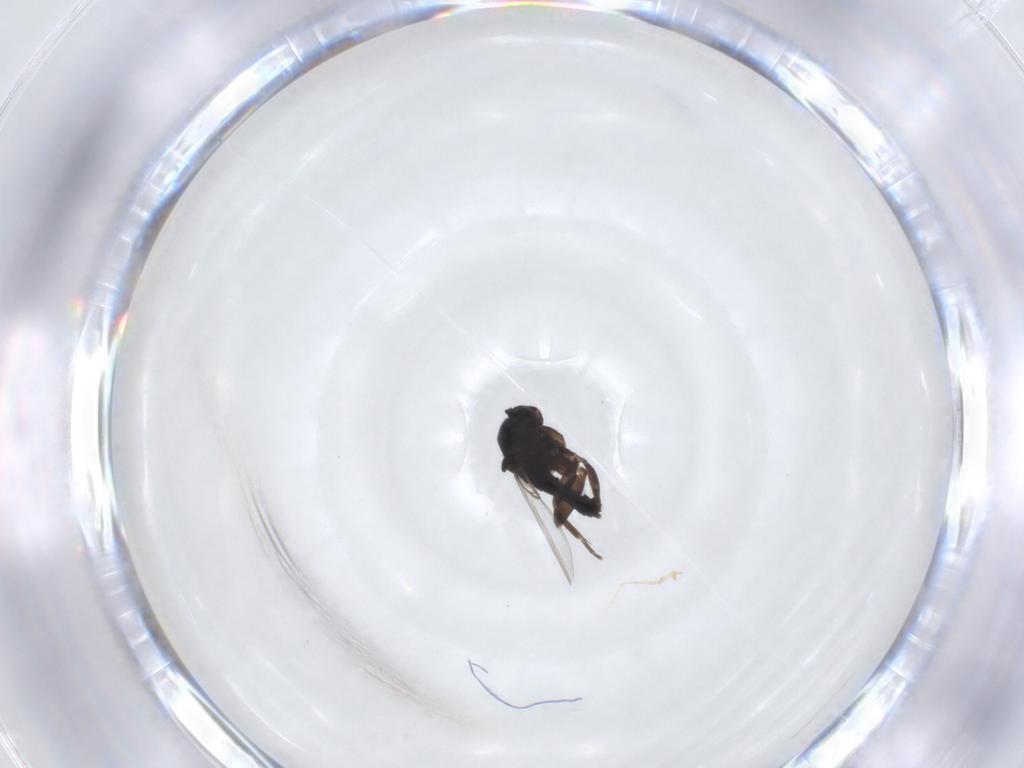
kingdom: Animalia
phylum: Arthropoda
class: Insecta
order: Diptera
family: Phoridae
